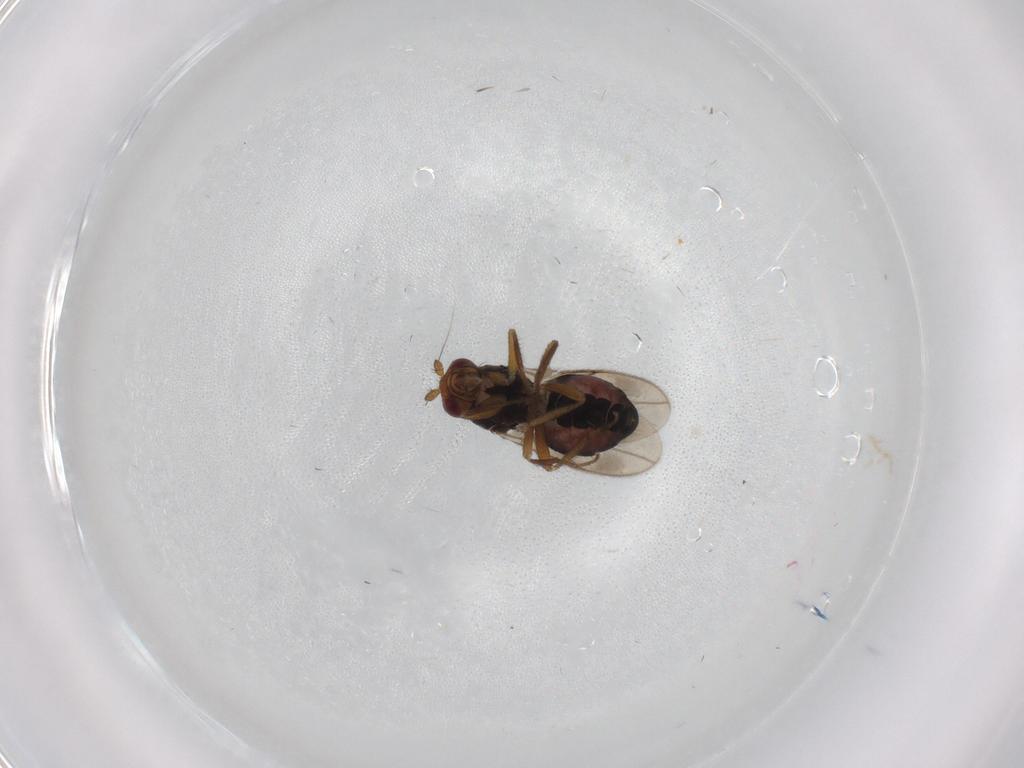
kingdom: Animalia
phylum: Arthropoda
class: Insecta
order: Diptera
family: Sphaeroceridae
